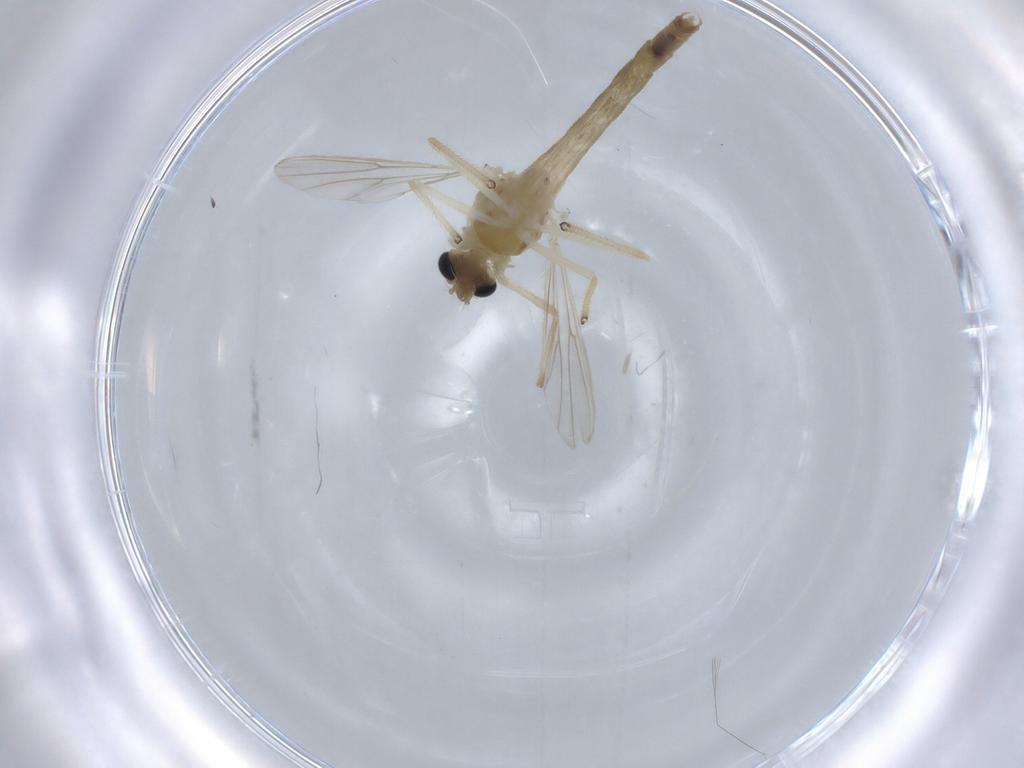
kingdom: Animalia
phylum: Arthropoda
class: Insecta
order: Diptera
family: Chironomidae
